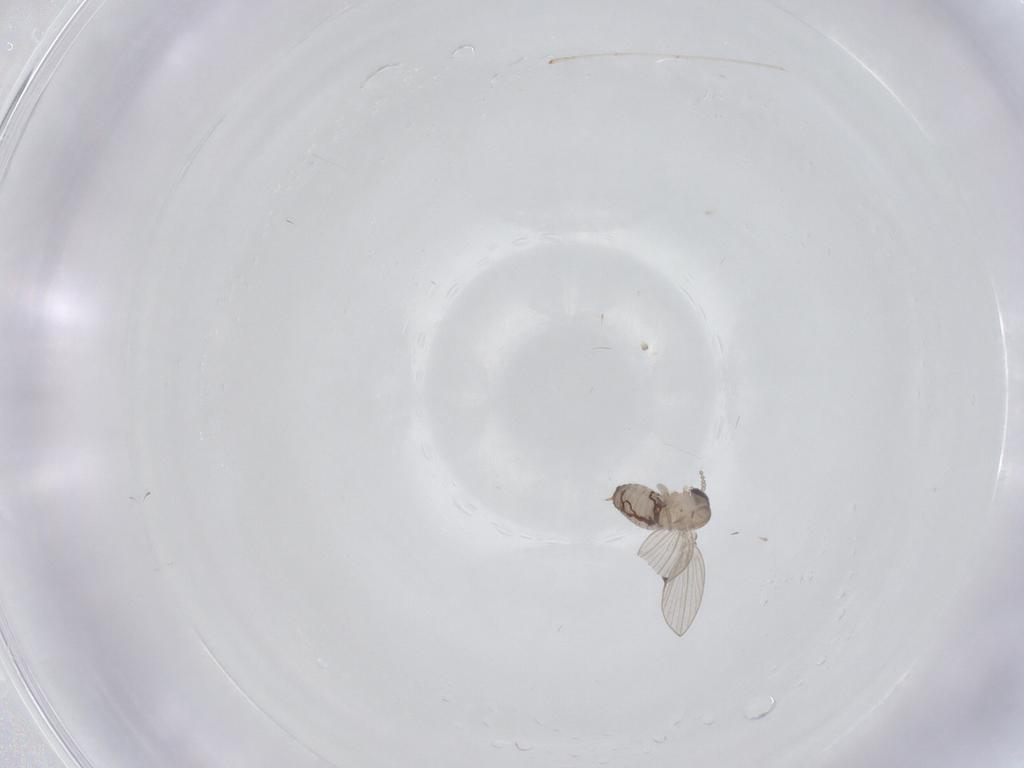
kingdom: Animalia
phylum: Arthropoda
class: Insecta
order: Diptera
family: Psychodidae
